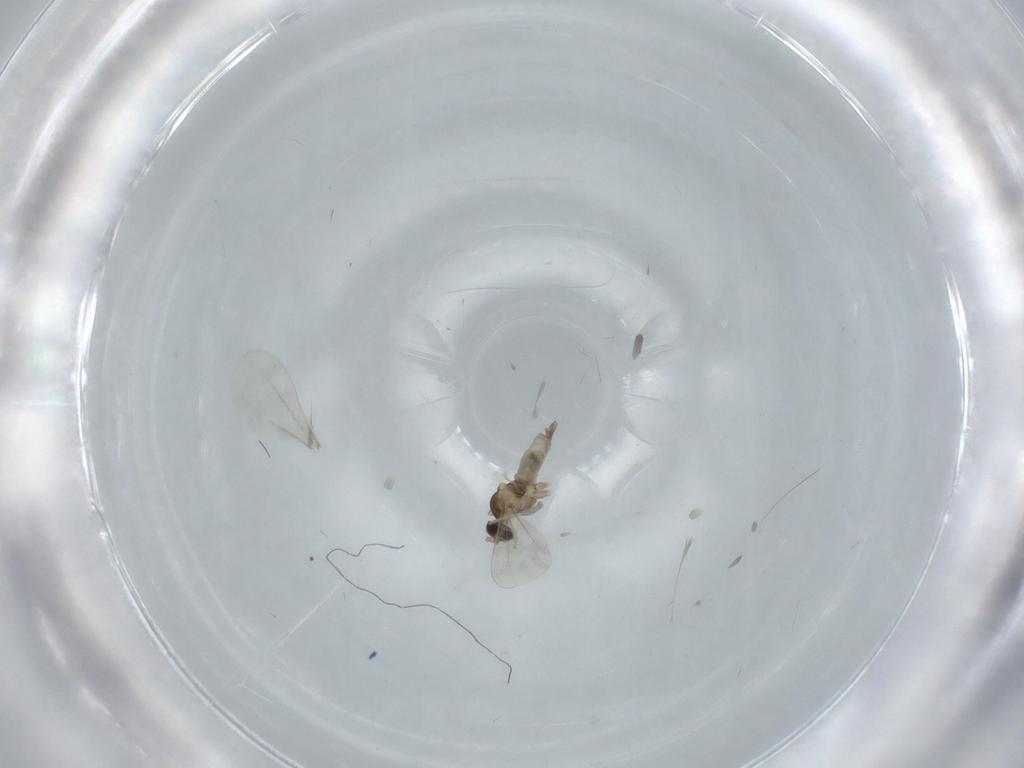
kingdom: Animalia
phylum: Arthropoda
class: Insecta
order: Diptera
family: Cecidomyiidae
